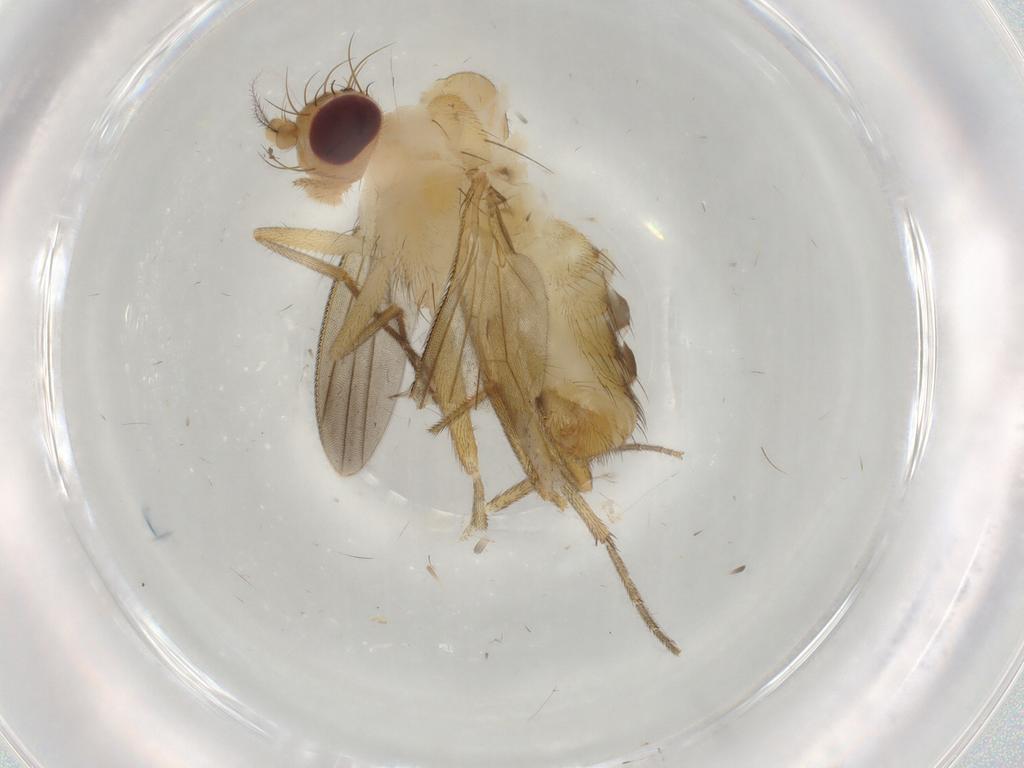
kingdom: Animalia
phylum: Arthropoda
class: Insecta
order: Diptera
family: Clusiidae
